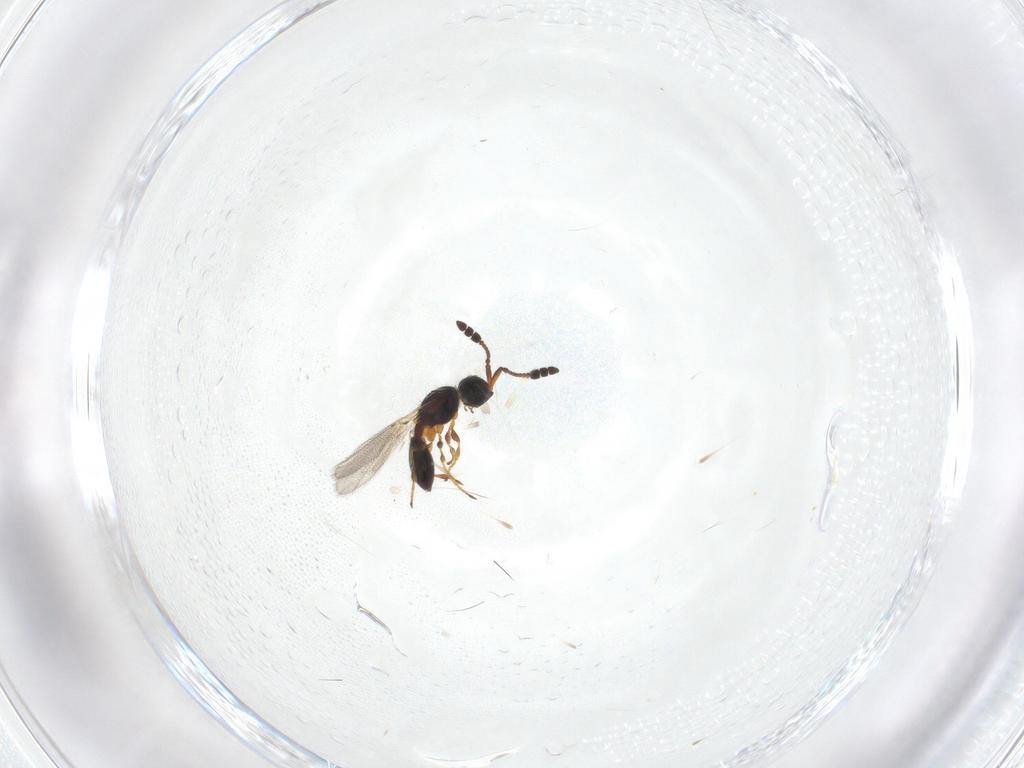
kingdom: Animalia
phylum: Arthropoda
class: Insecta
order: Hymenoptera
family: Diapriidae
